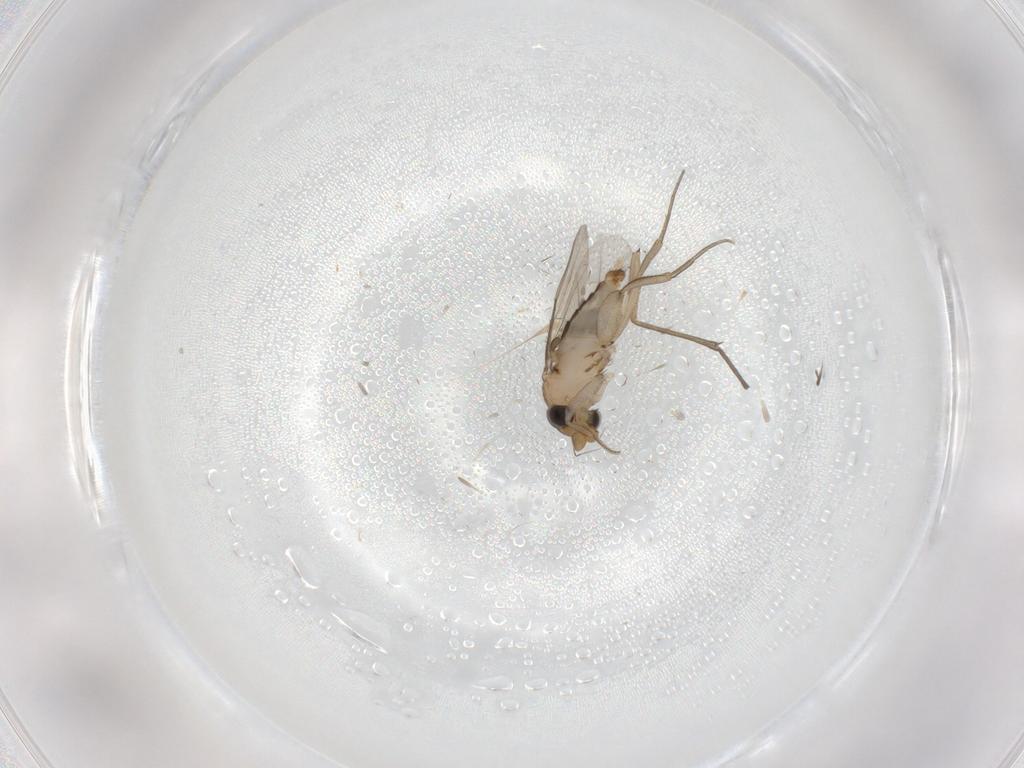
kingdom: Animalia
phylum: Arthropoda
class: Insecta
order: Diptera
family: Phoridae
